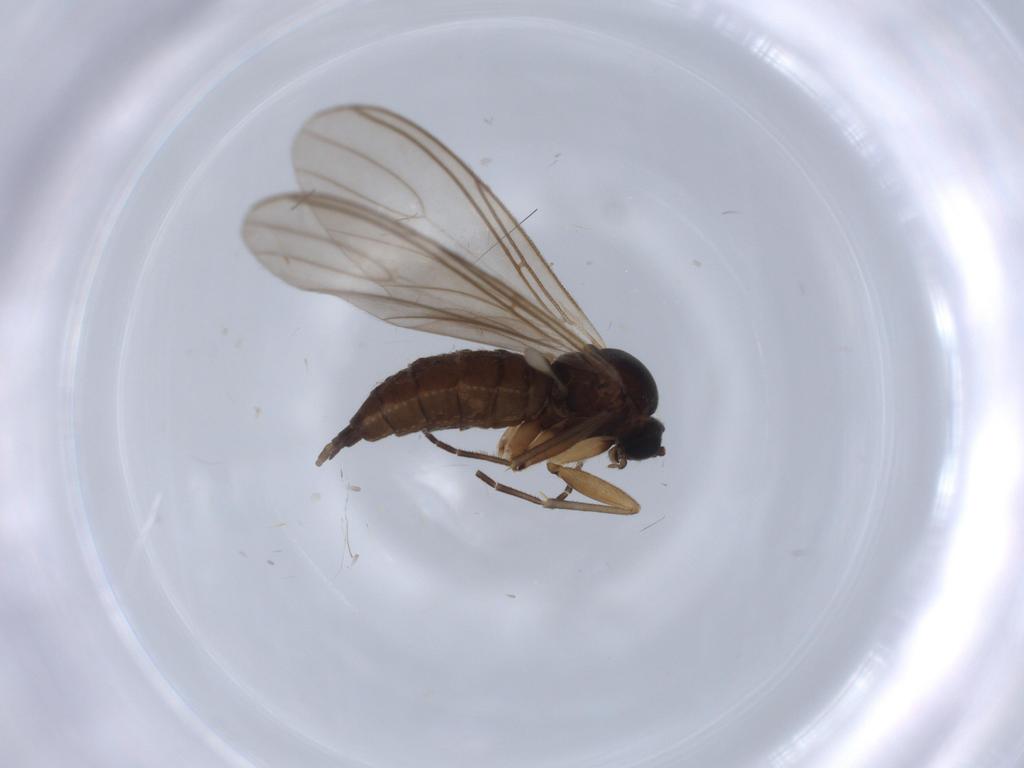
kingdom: Animalia
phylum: Arthropoda
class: Insecta
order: Diptera
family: Sciaridae
